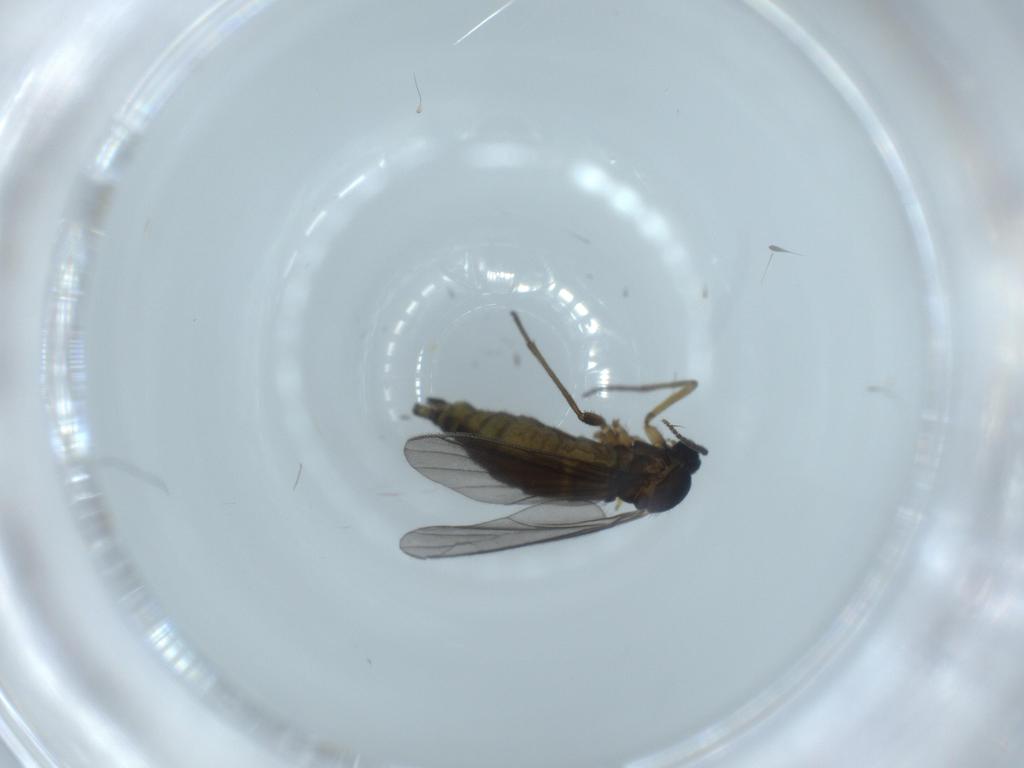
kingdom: Animalia
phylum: Arthropoda
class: Insecta
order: Diptera
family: Sciaridae
